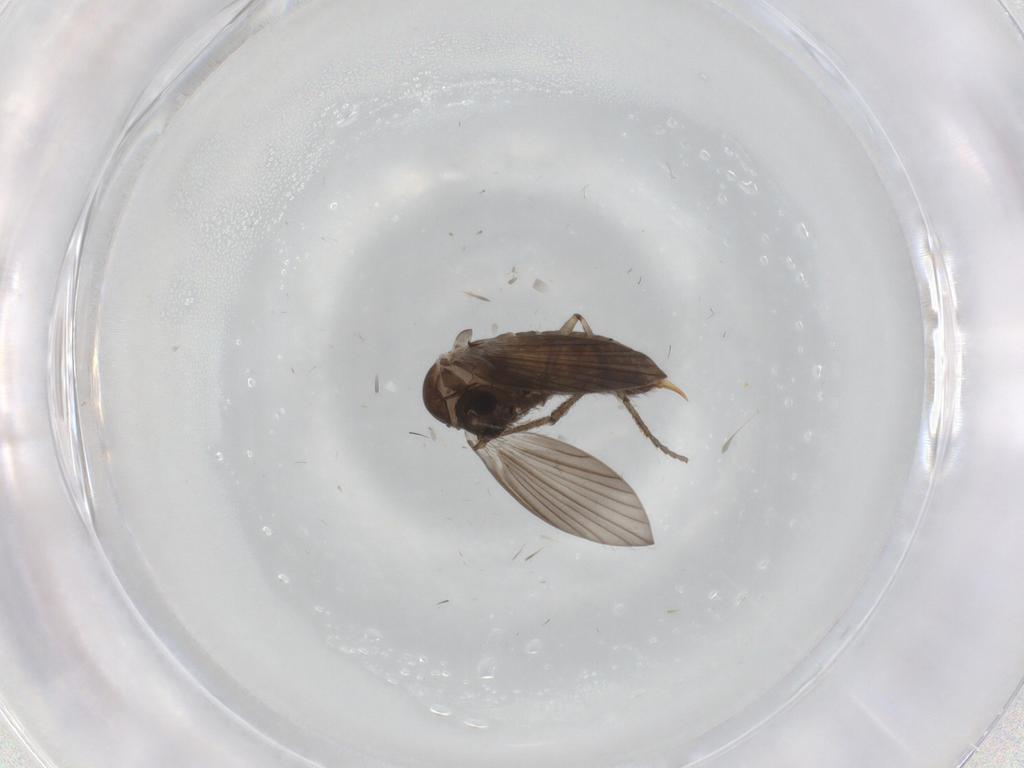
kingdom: Animalia
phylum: Arthropoda
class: Insecta
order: Diptera
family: Psychodidae
